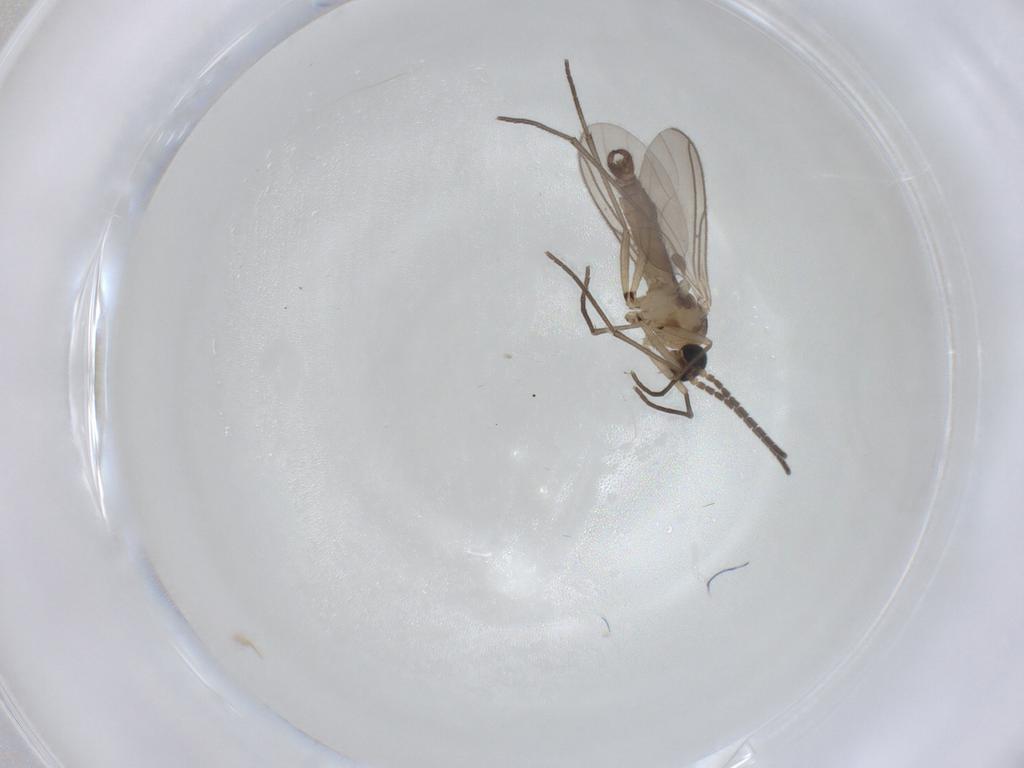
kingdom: Animalia
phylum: Arthropoda
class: Insecta
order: Diptera
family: Sciaridae
